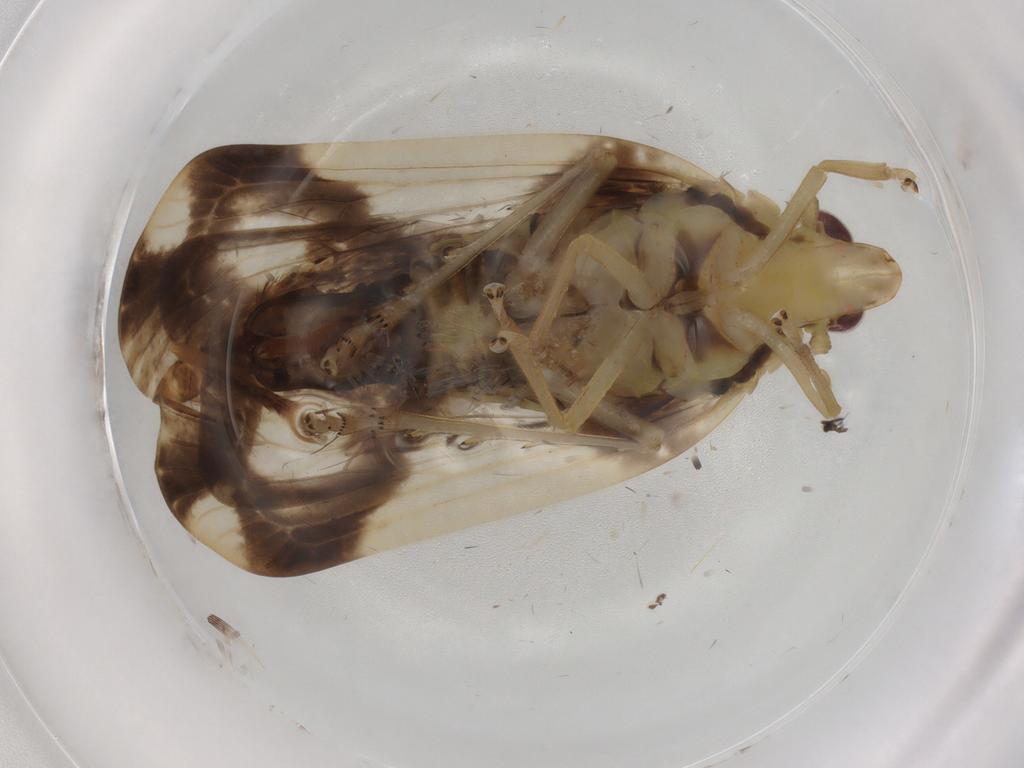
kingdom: Animalia
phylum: Arthropoda
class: Insecta
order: Hemiptera
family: Tropiduchidae
